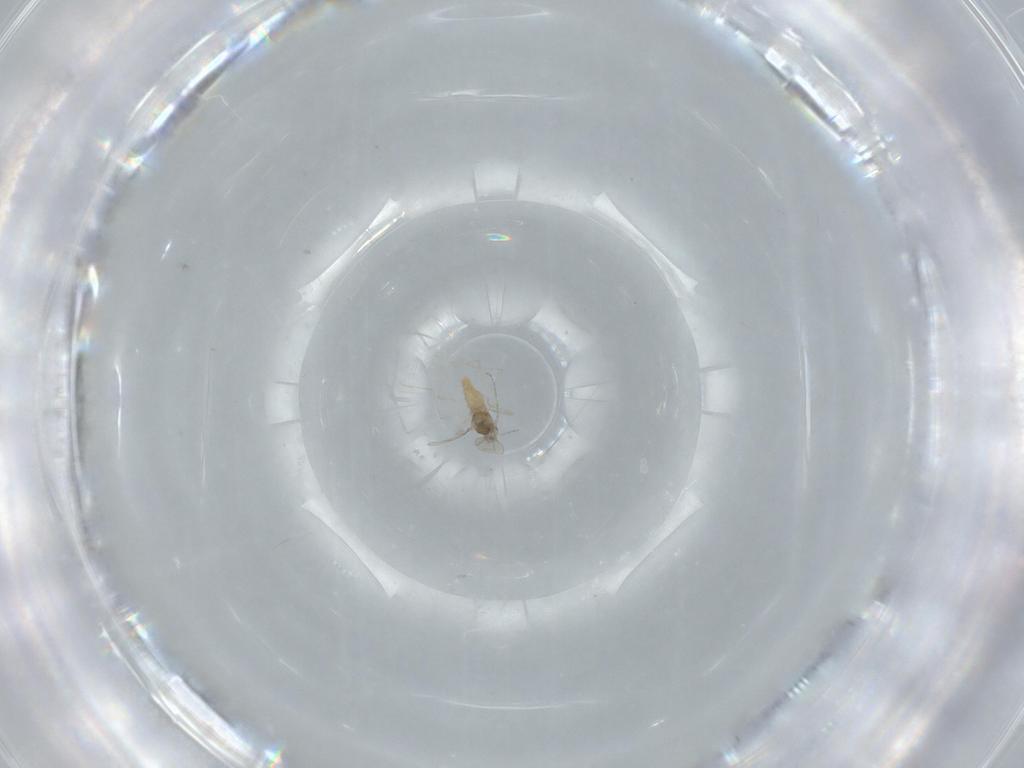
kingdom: Animalia
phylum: Arthropoda
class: Insecta
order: Diptera
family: Cecidomyiidae
